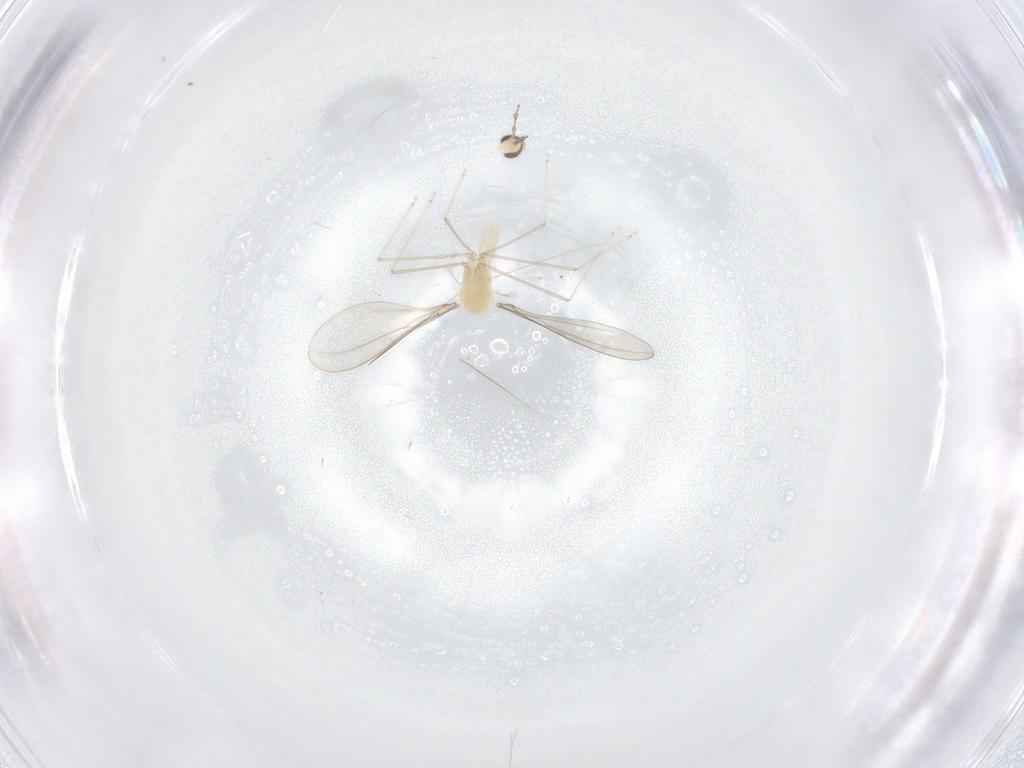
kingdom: Animalia
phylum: Arthropoda
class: Insecta
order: Diptera
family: Cecidomyiidae
